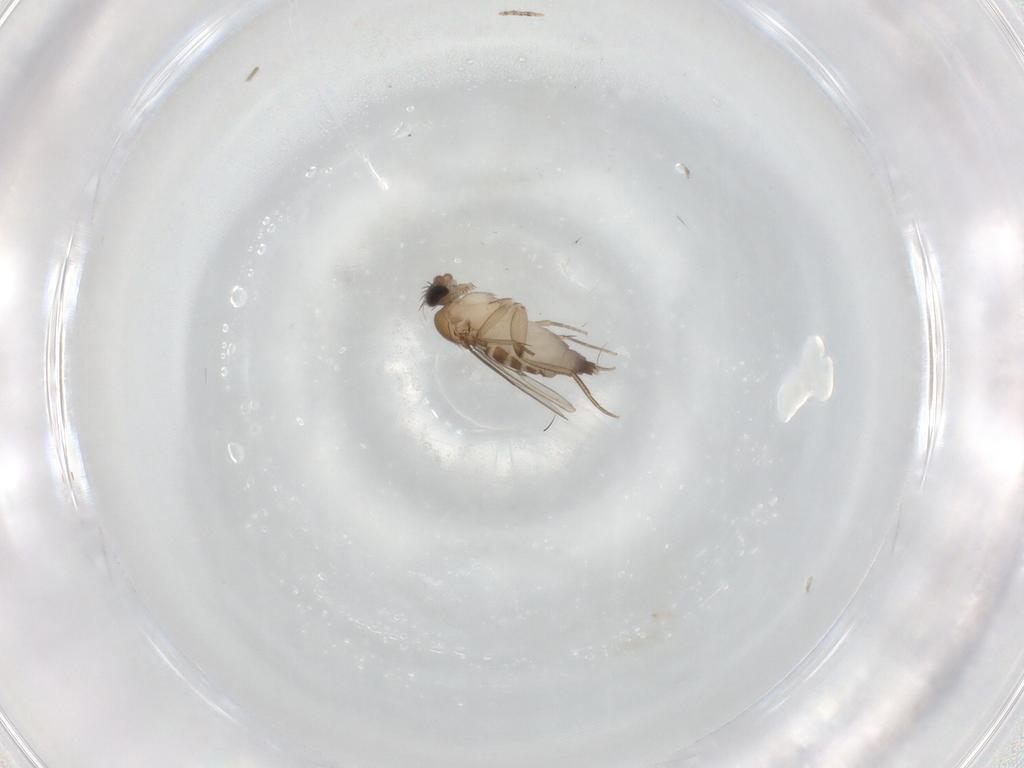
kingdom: Animalia
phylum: Arthropoda
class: Insecta
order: Diptera
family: Phoridae
